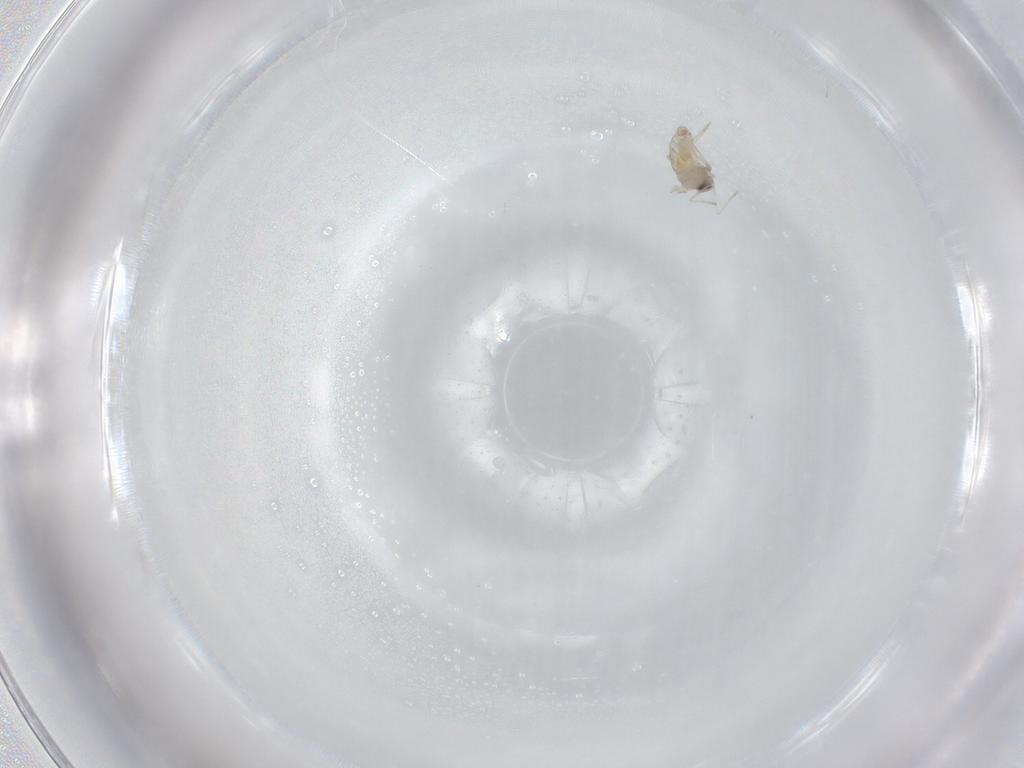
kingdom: Animalia
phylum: Arthropoda
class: Insecta
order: Diptera
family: Cecidomyiidae
